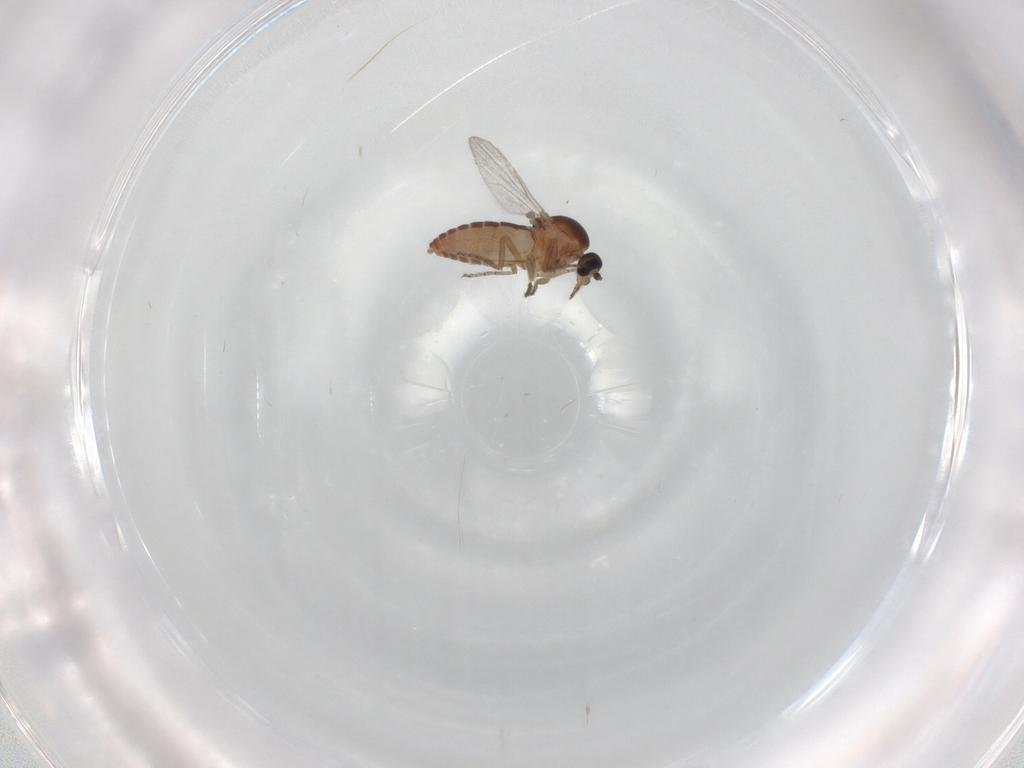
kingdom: Animalia
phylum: Arthropoda
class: Insecta
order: Diptera
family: Ceratopogonidae
